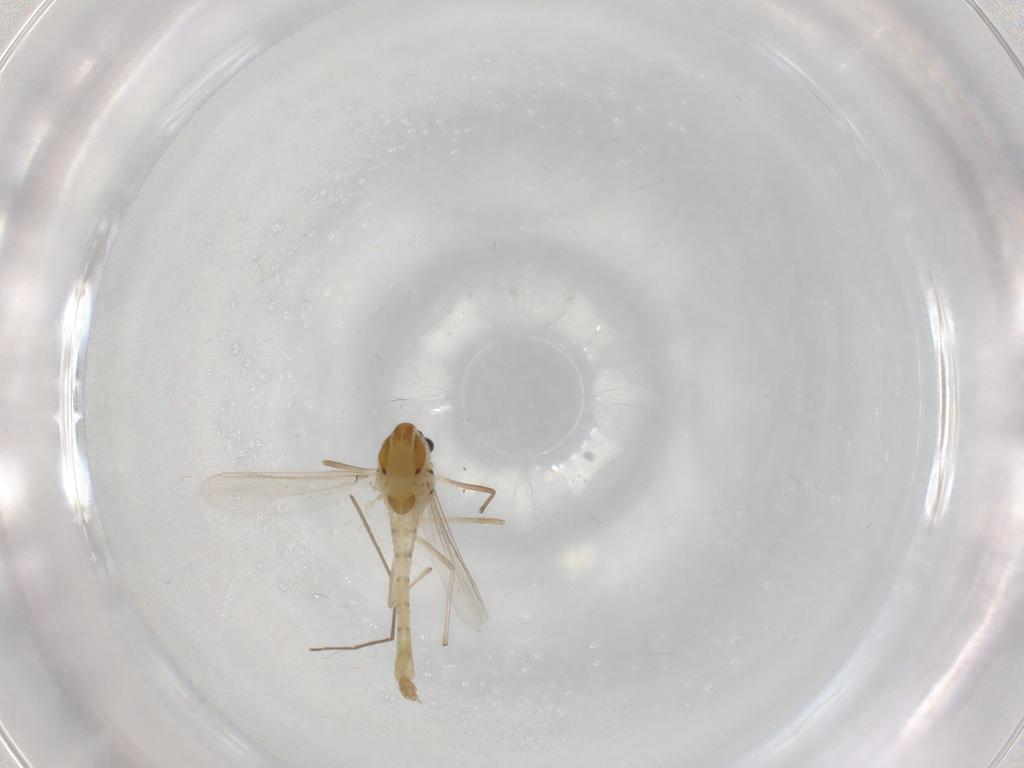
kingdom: Animalia
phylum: Arthropoda
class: Insecta
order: Diptera
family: Chironomidae
